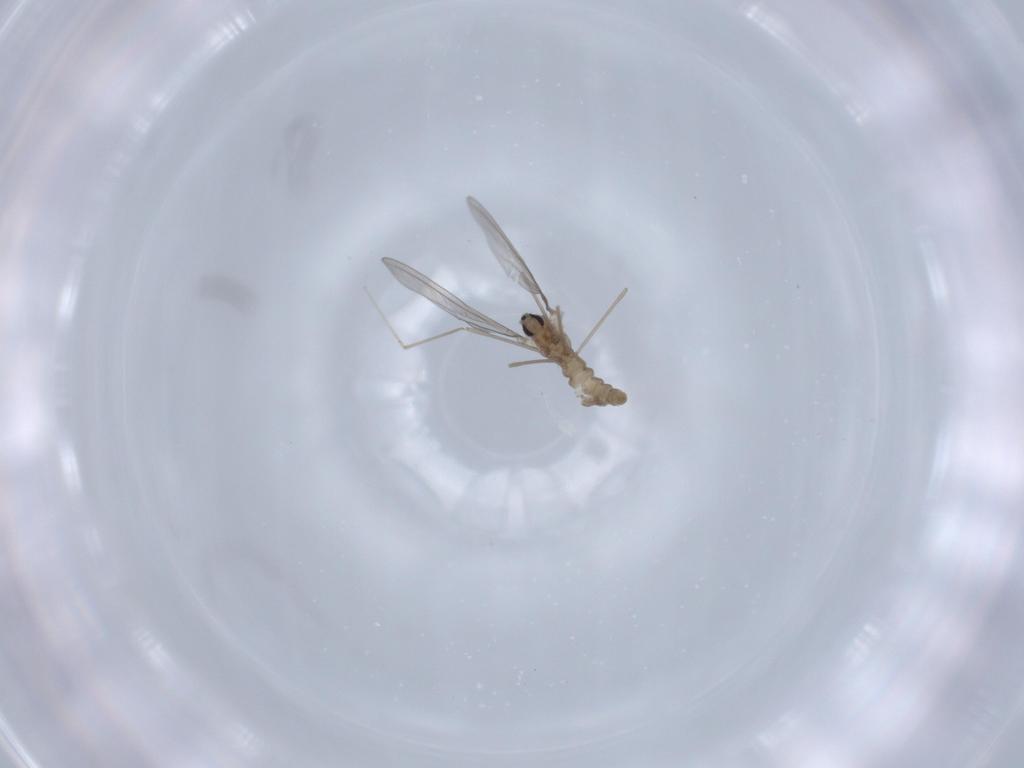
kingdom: Animalia
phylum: Arthropoda
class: Insecta
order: Diptera
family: Cecidomyiidae
